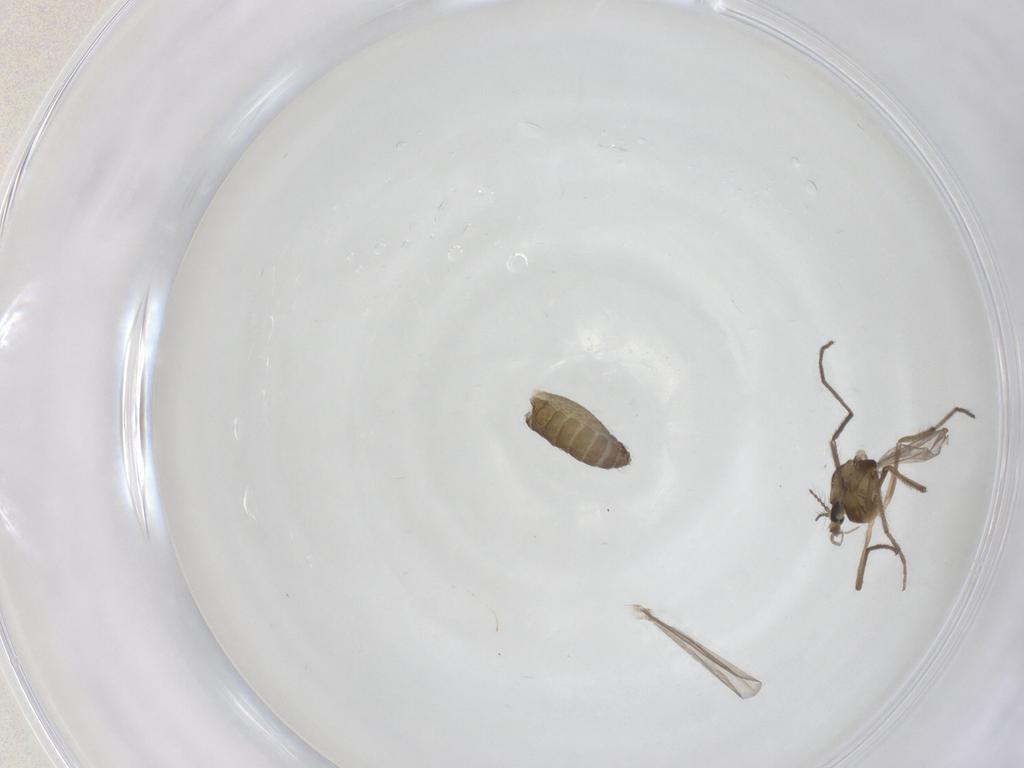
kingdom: Animalia
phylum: Arthropoda
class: Insecta
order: Diptera
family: Chironomidae
